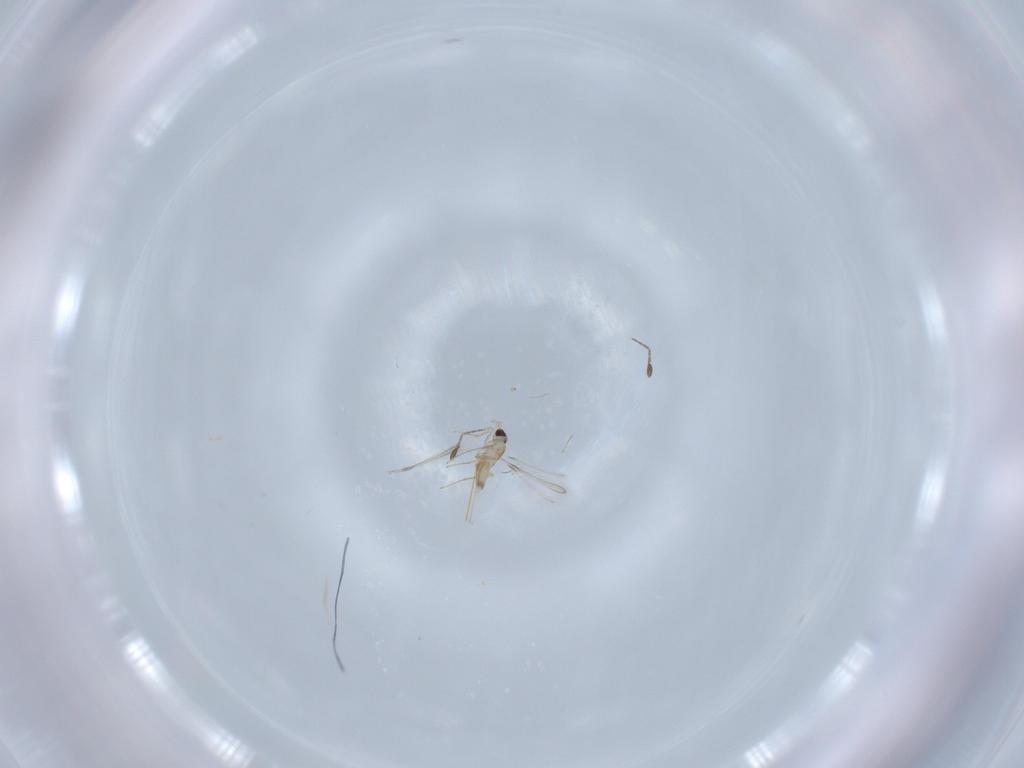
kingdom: Animalia
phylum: Arthropoda
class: Insecta
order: Hymenoptera
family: Mymaridae
